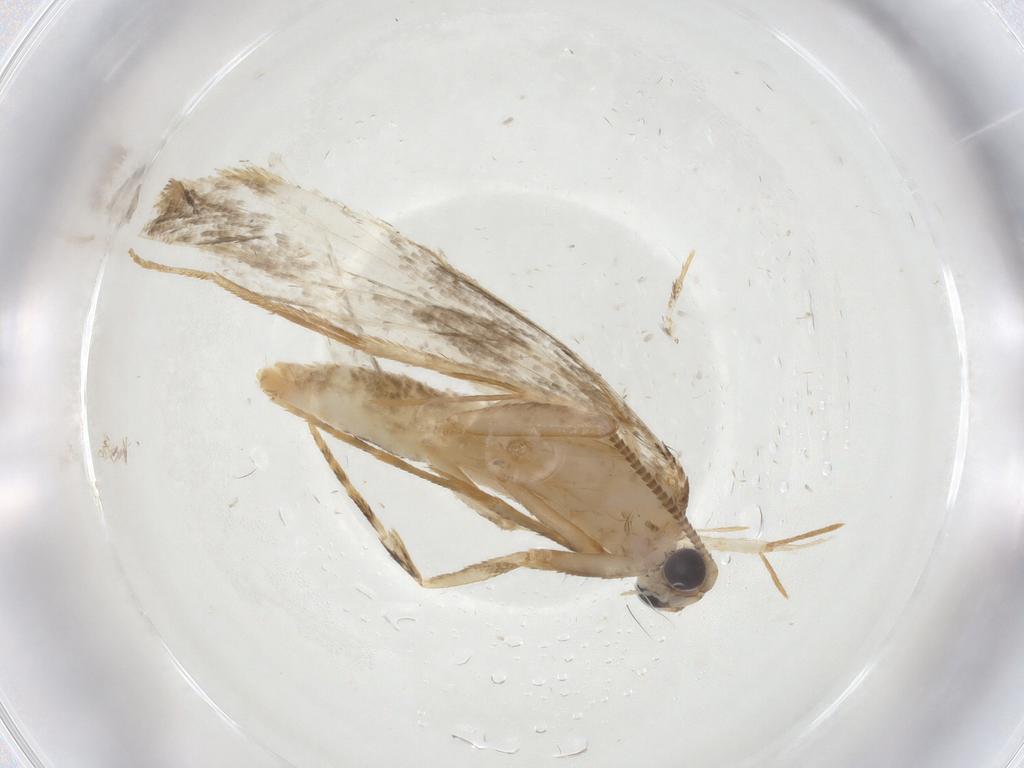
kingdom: Animalia
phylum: Arthropoda
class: Insecta
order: Lepidoptera
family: Meessiidae
